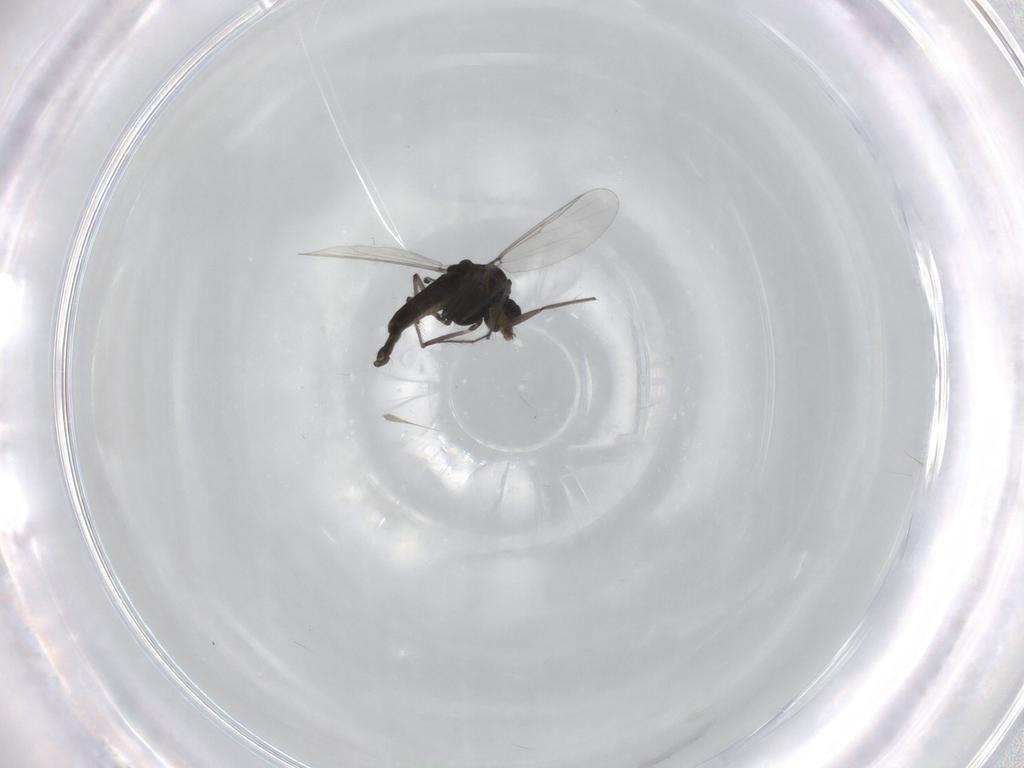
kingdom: Animalia
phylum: Arthropoda
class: Insecta
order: Diptera
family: Chironomidae
